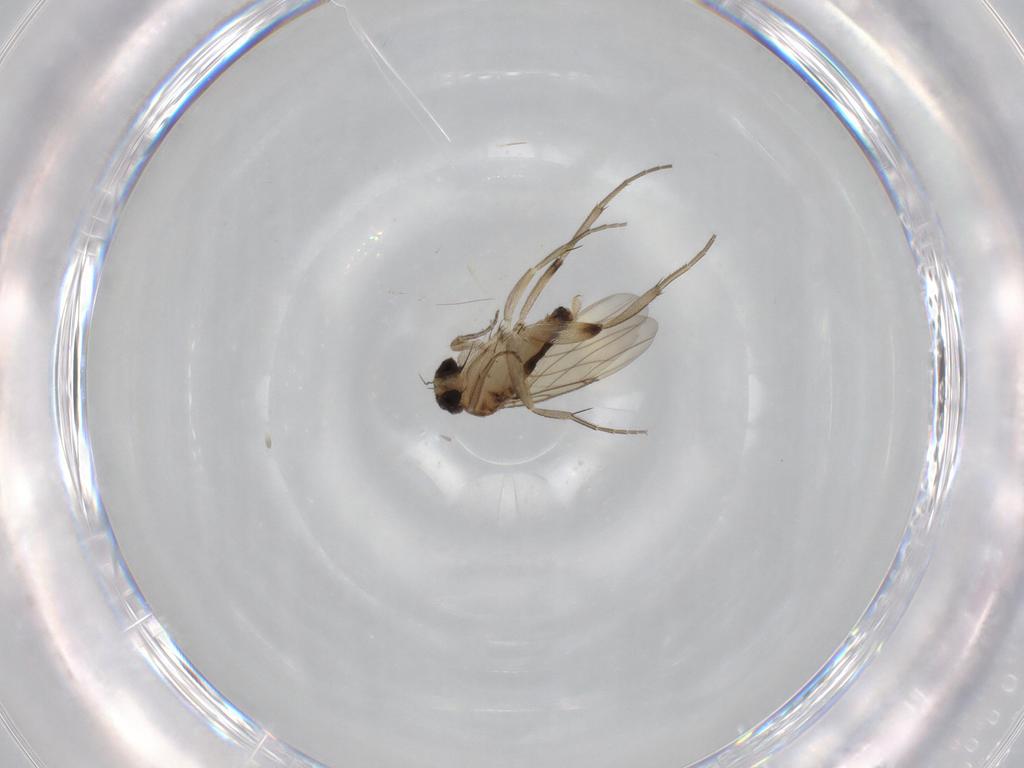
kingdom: Animalia
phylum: Arthropoda
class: Insecta
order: Diptera
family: Phoridae
